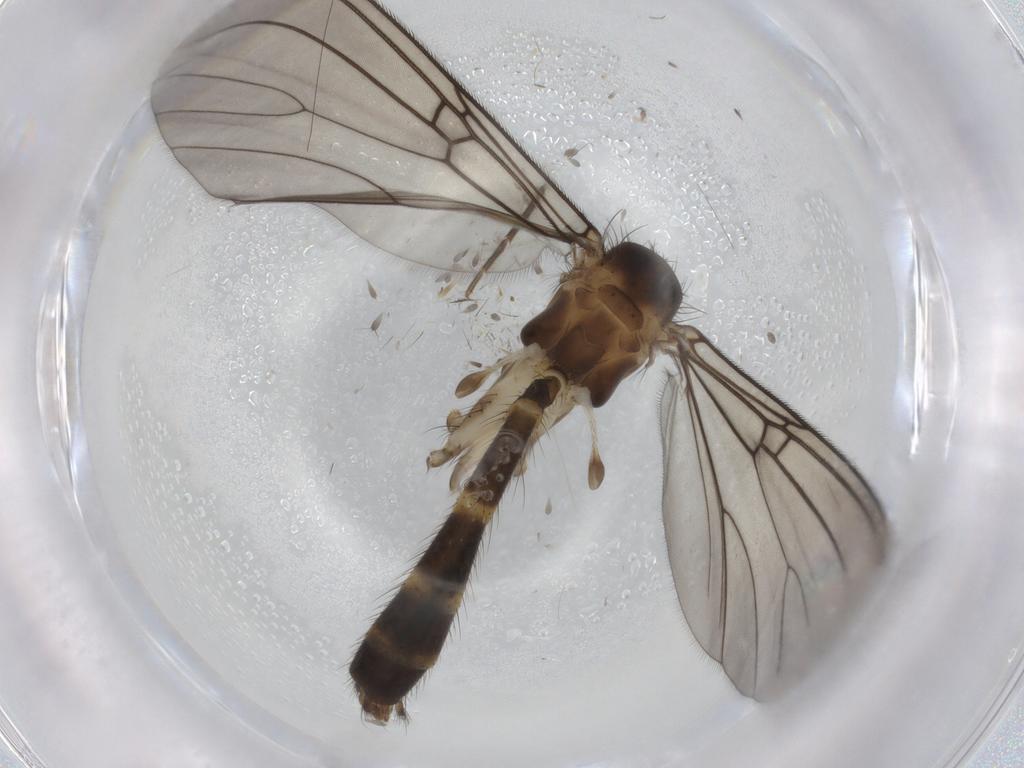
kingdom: Animalia
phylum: Arthropoda
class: Insecta
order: Diptera
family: Mycetophilidae
